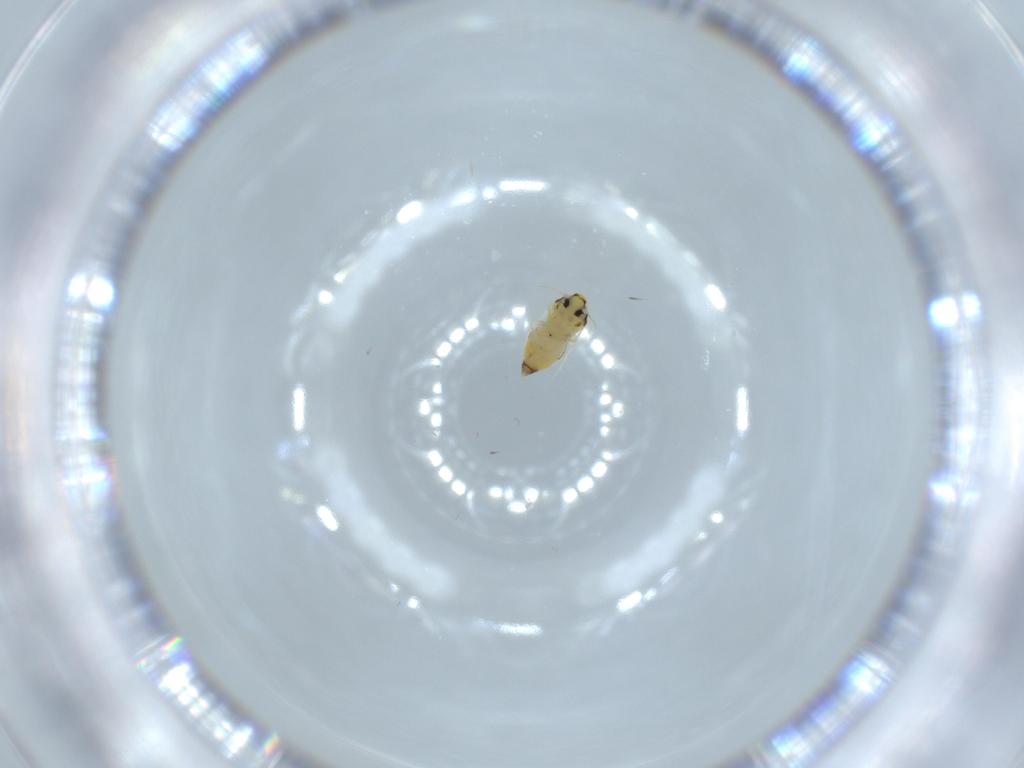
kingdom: Animalia
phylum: Arthropoda
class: Insecta
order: Hemiptera
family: Aleyrodidae
